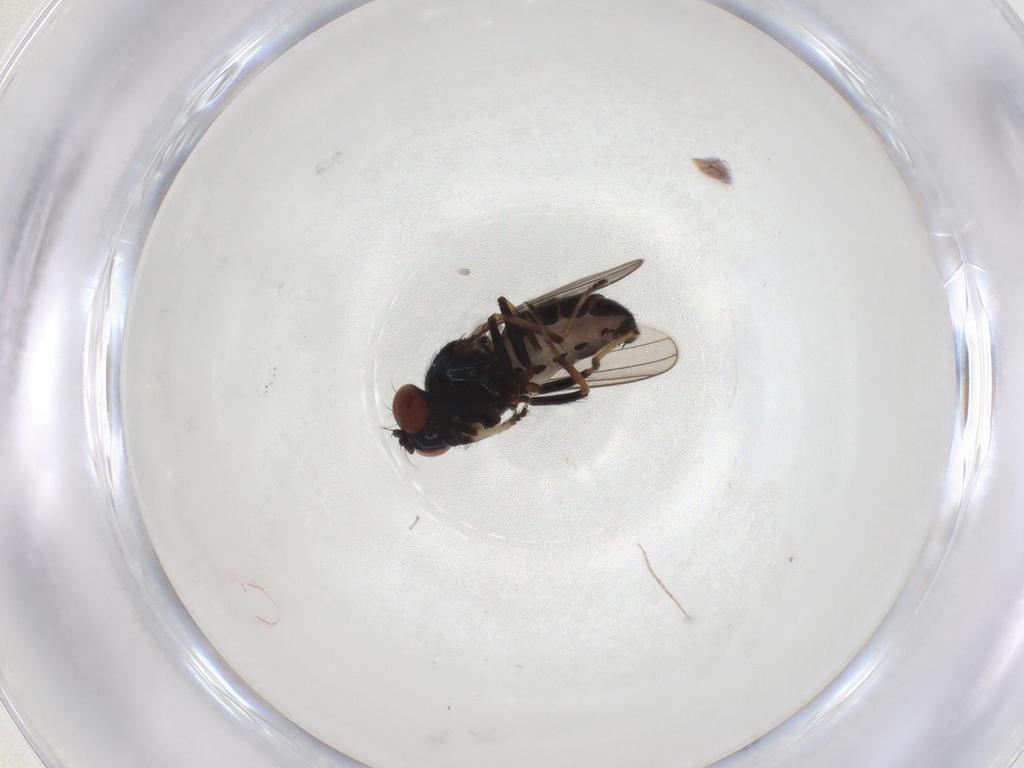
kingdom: Animalia
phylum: Arthropoda
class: Insecta
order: Diptera
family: Ephydridae
